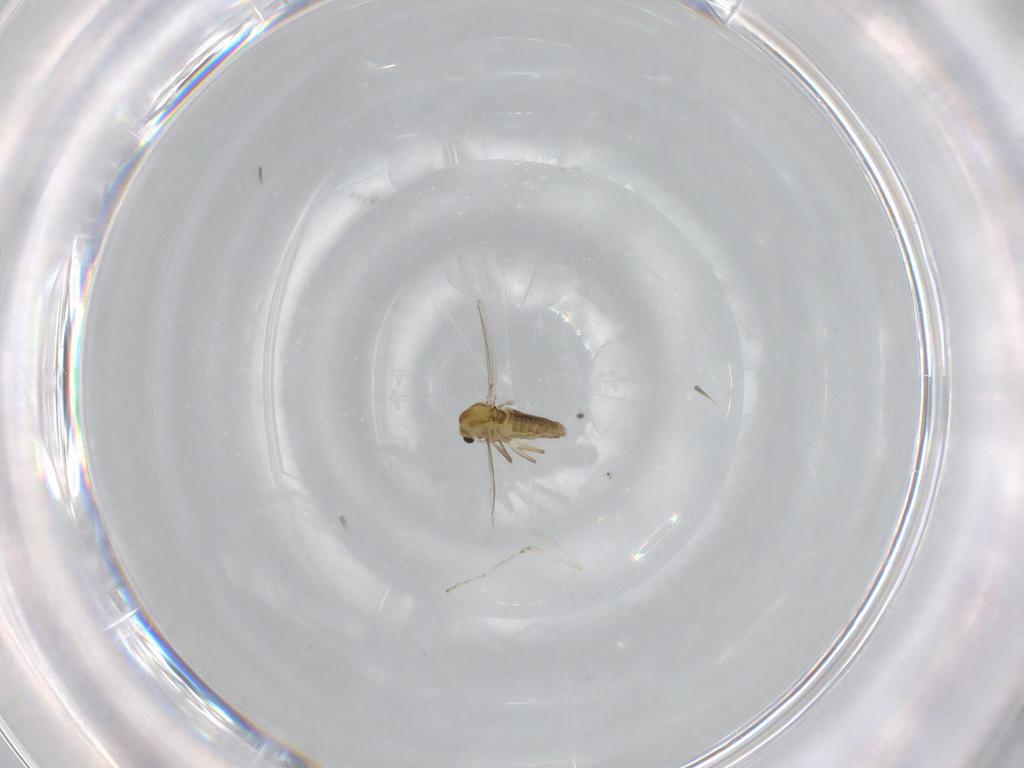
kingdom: Animalia
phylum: Arthropoda
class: Insecta
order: Diptera
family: Chironomidae
